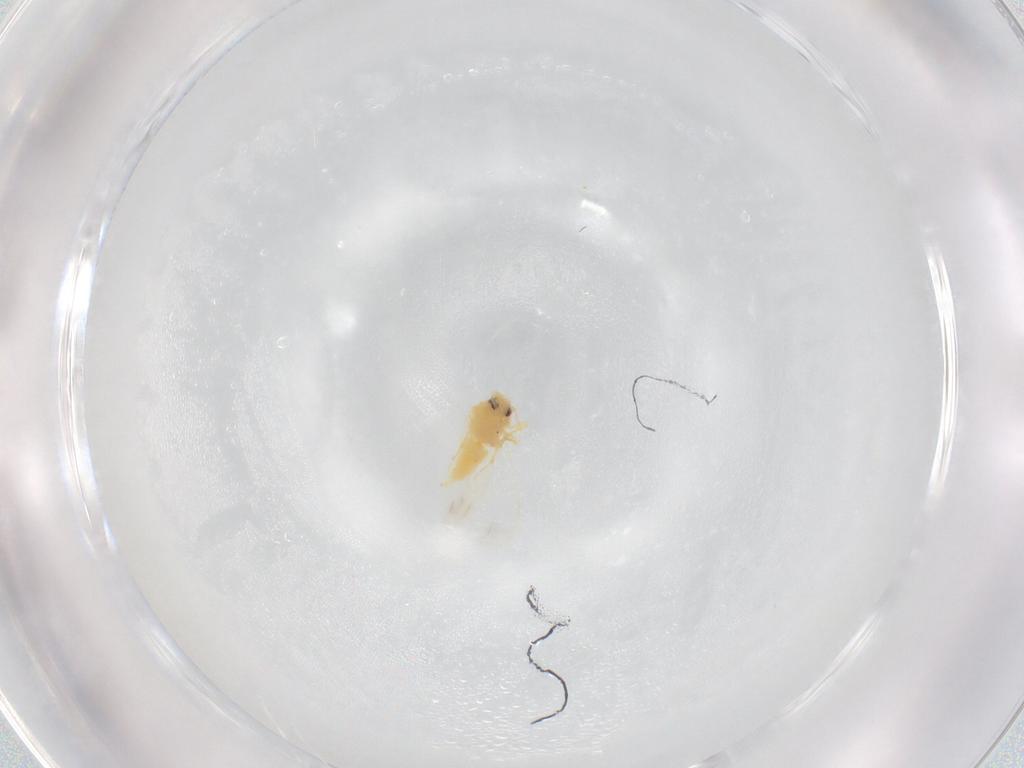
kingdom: Animalia
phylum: Arthropoda
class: Insecta
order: Hemiptera
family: Aleyrodidae
